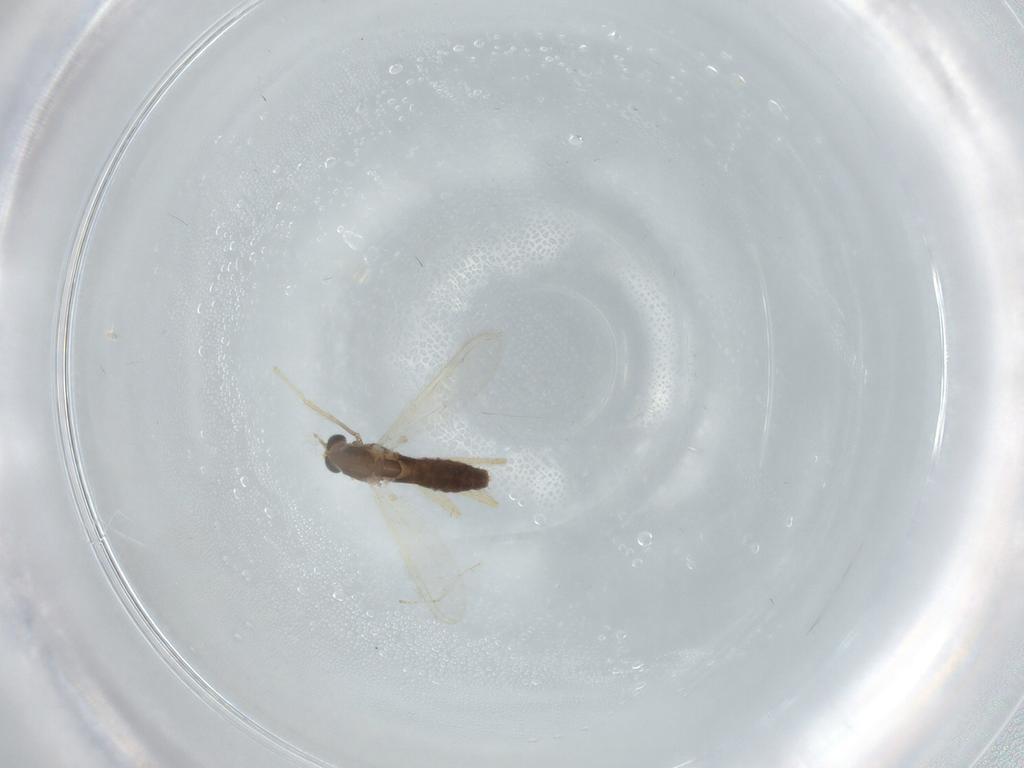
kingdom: Animalia
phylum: Arthropoda
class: Insecta
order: Diptera
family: Chironomidae
